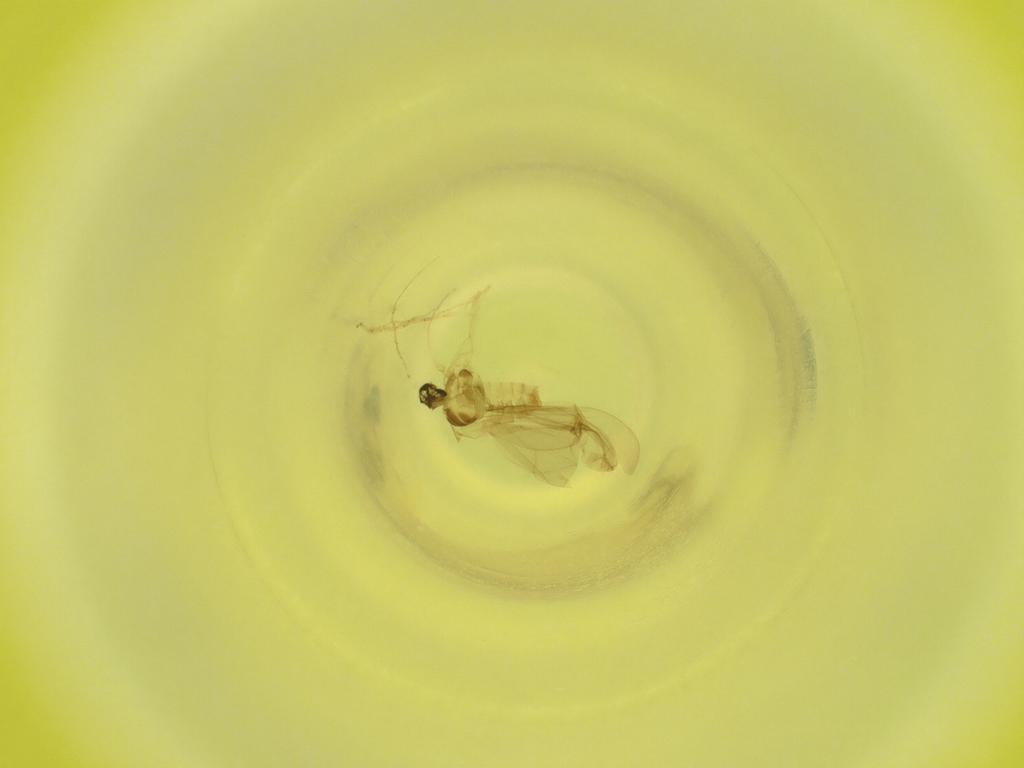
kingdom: Animalia
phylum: Arthropoda
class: Insecta
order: Diptera
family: Cecidomyiidae
